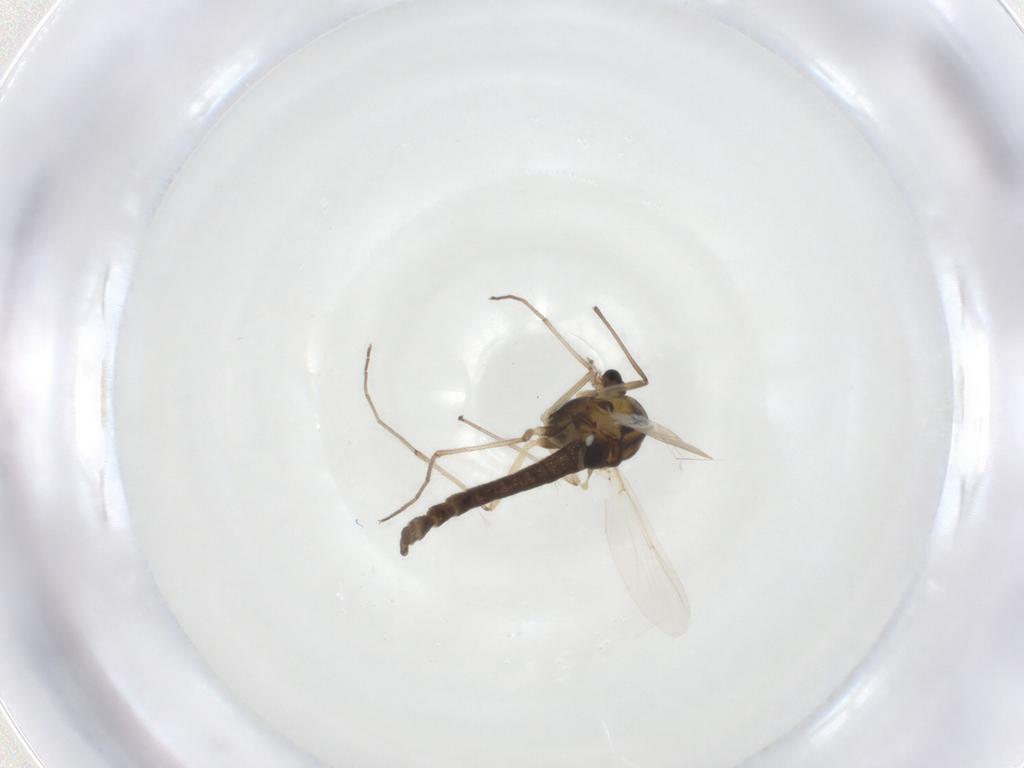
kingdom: Animalia
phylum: Arthropoda
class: Insecta
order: Diptera
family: Chironomidae
